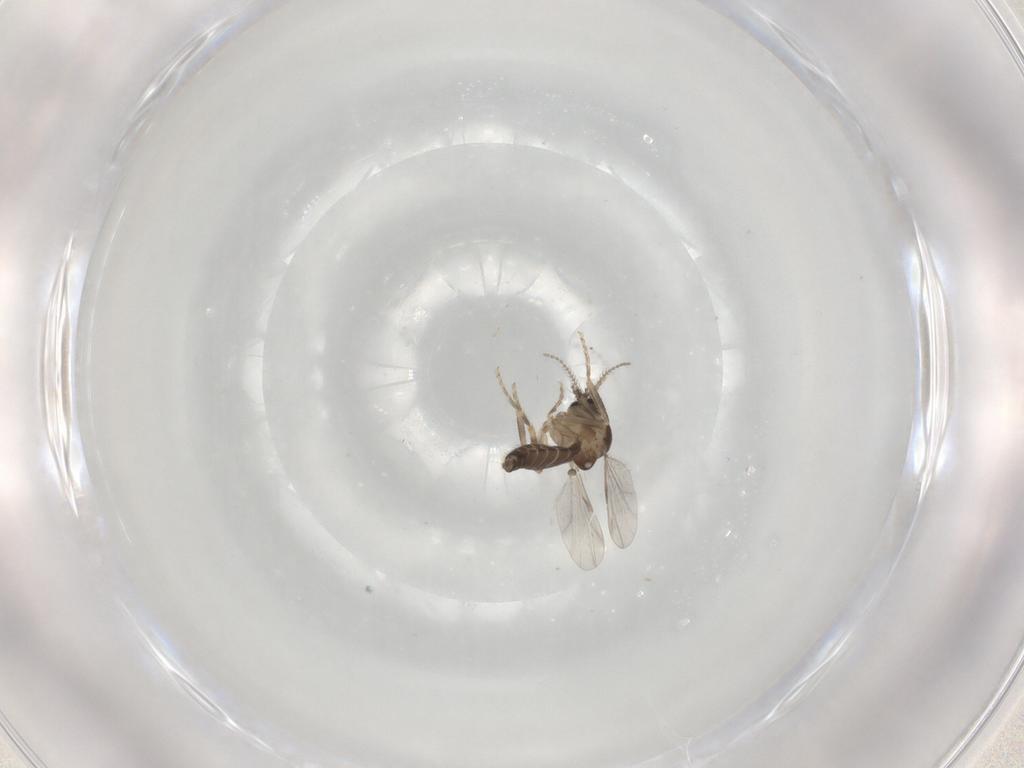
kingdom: Animalia
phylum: Arthropoda
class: Insecta
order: Diptera
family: Ceratopogonidae
